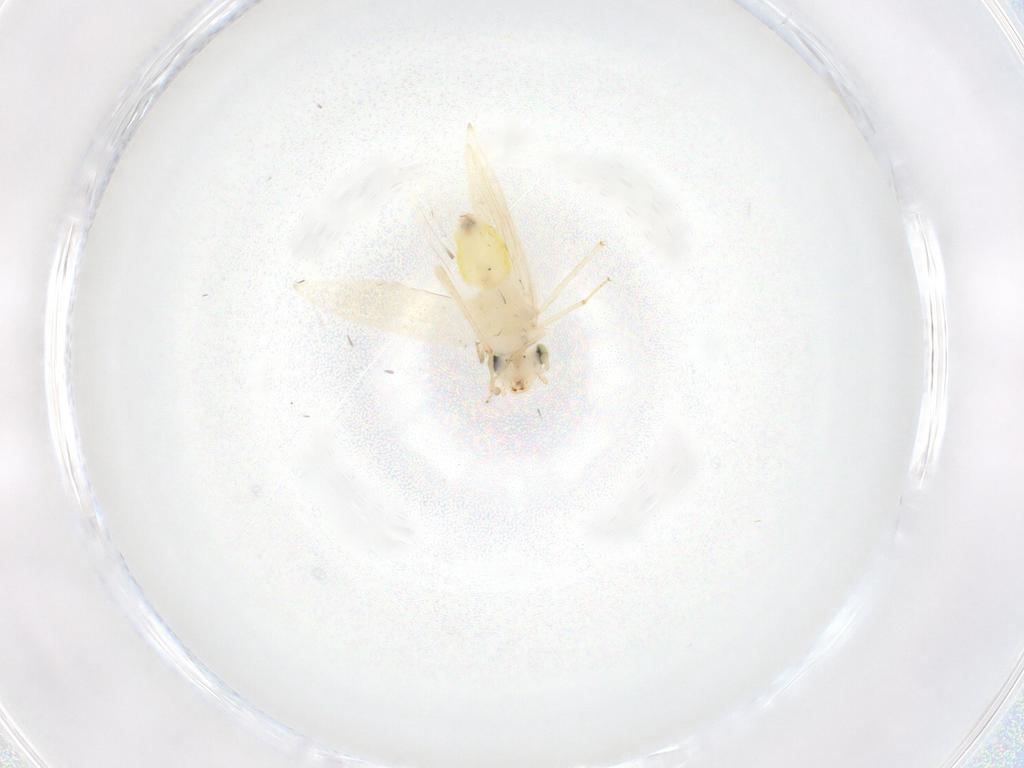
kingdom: Animalia
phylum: Arthropoda
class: Insecta
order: Psocodea
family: Lepidopsocidae
